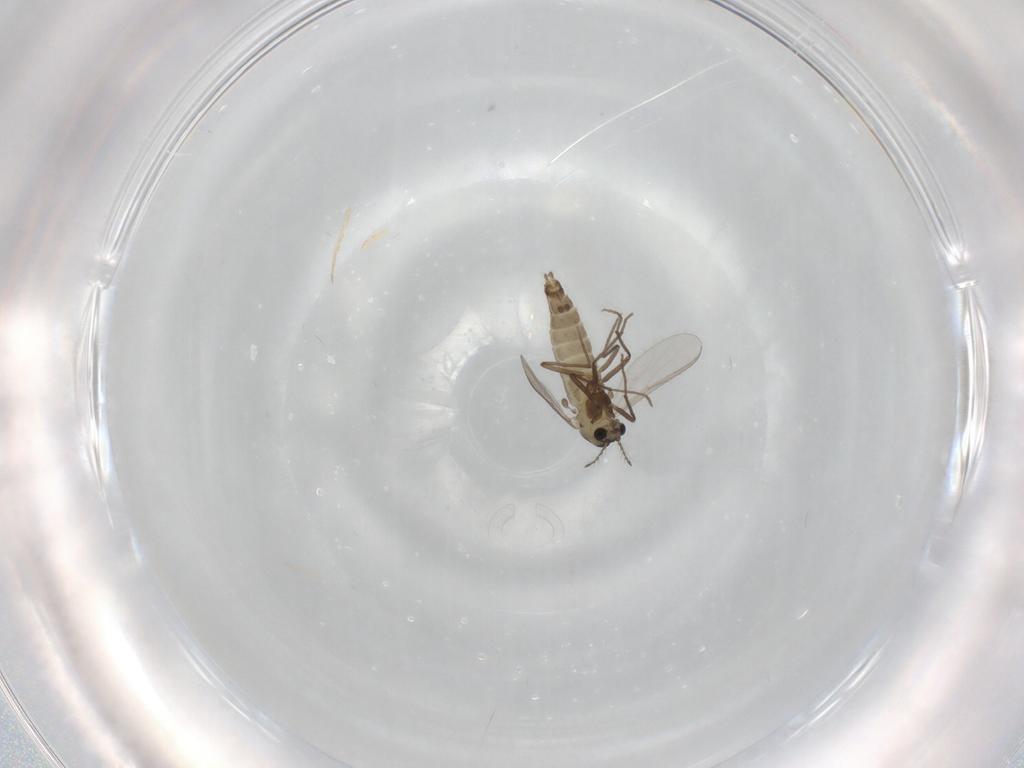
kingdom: Animalia
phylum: Arthropoda
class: Insecta
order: Diptera
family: Chironomidae
